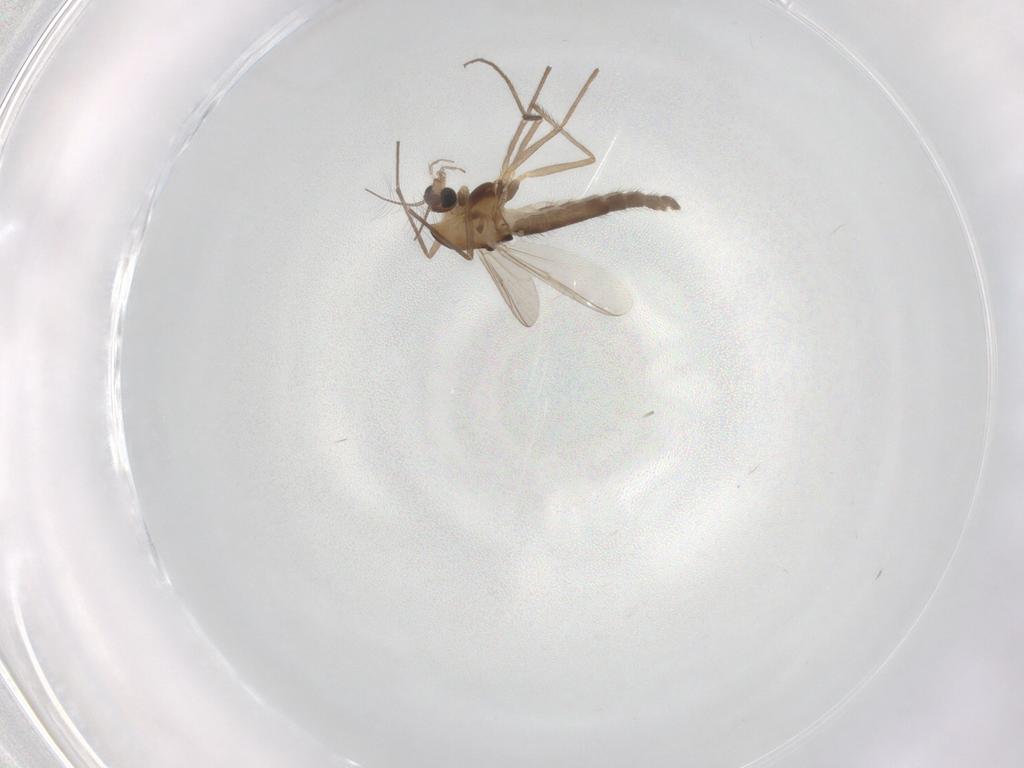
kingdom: Animalia
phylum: Arthropoda
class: Insecta
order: Diptera
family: Chironomidae
